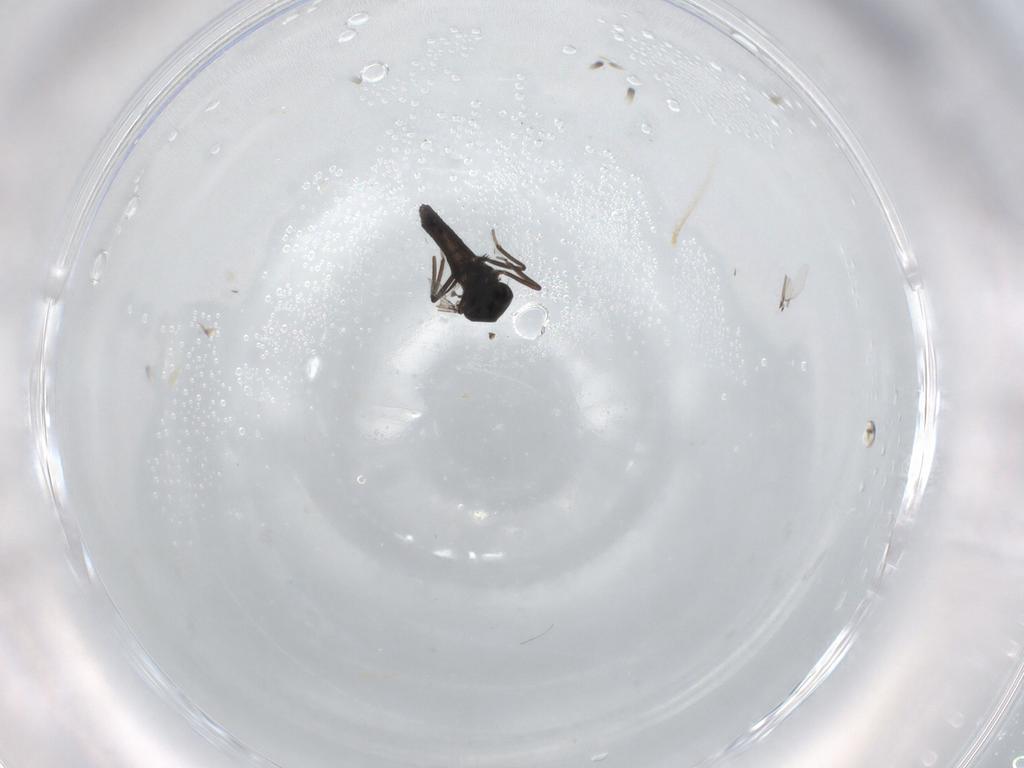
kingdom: Animalia
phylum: Arthropoda
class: Insecta
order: Diptera
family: Ceratopogonidae
